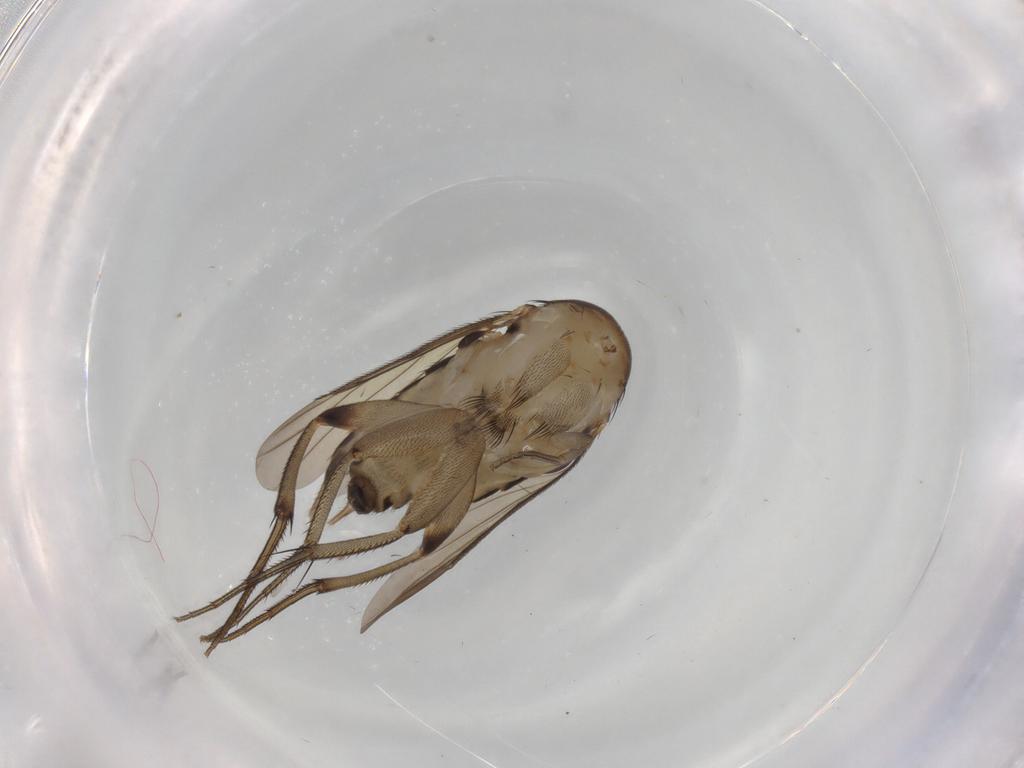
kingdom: Animalia
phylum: Arthropoda
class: Insecta
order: Diptera
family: Phoridae
